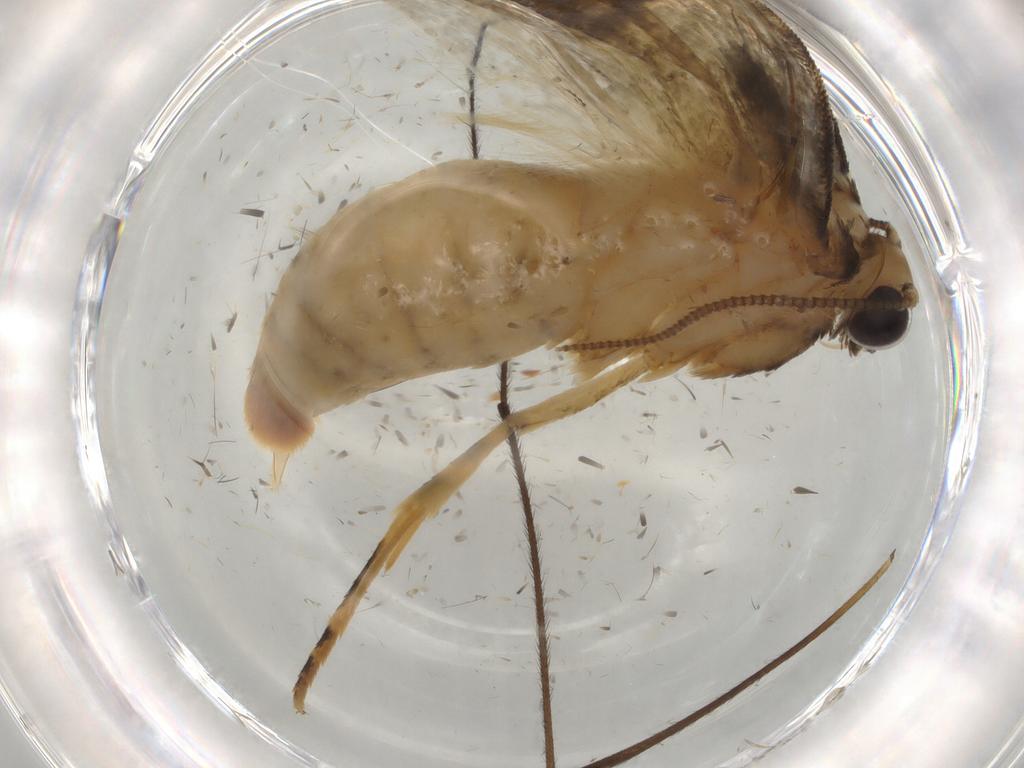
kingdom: Animalia
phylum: Arthropoda
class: Insecta
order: Lepidoptera
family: Tineidae
